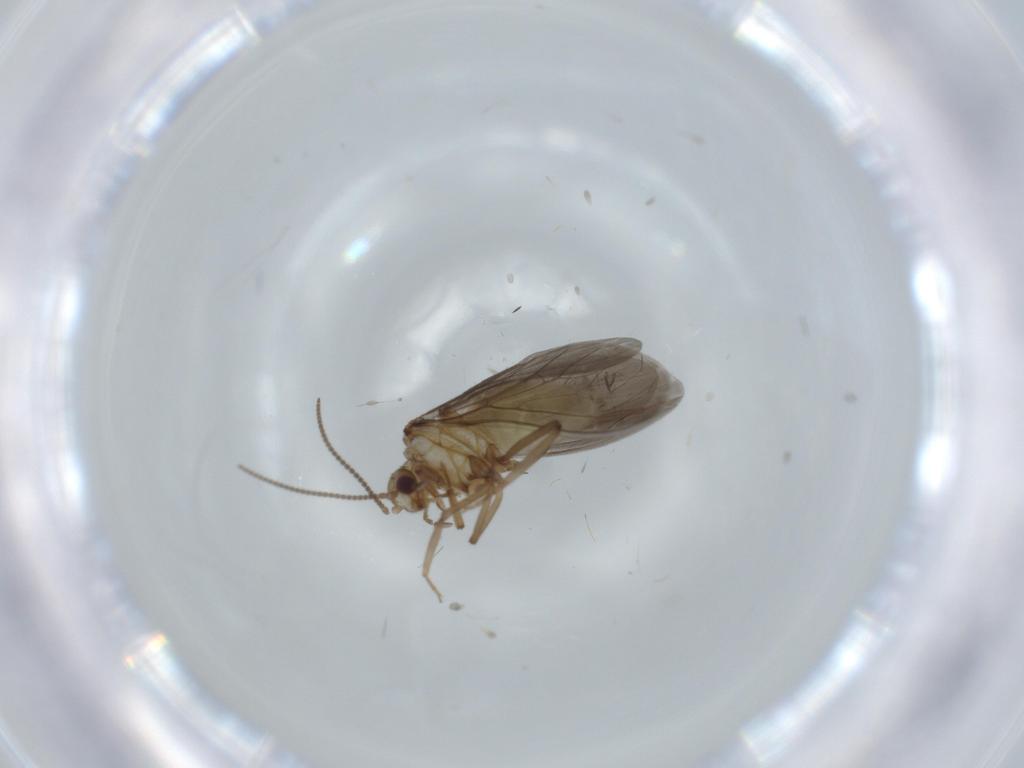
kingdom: Animalia
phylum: Arthropoda
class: Insecta
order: Neuroptera
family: Coniopterygidae
